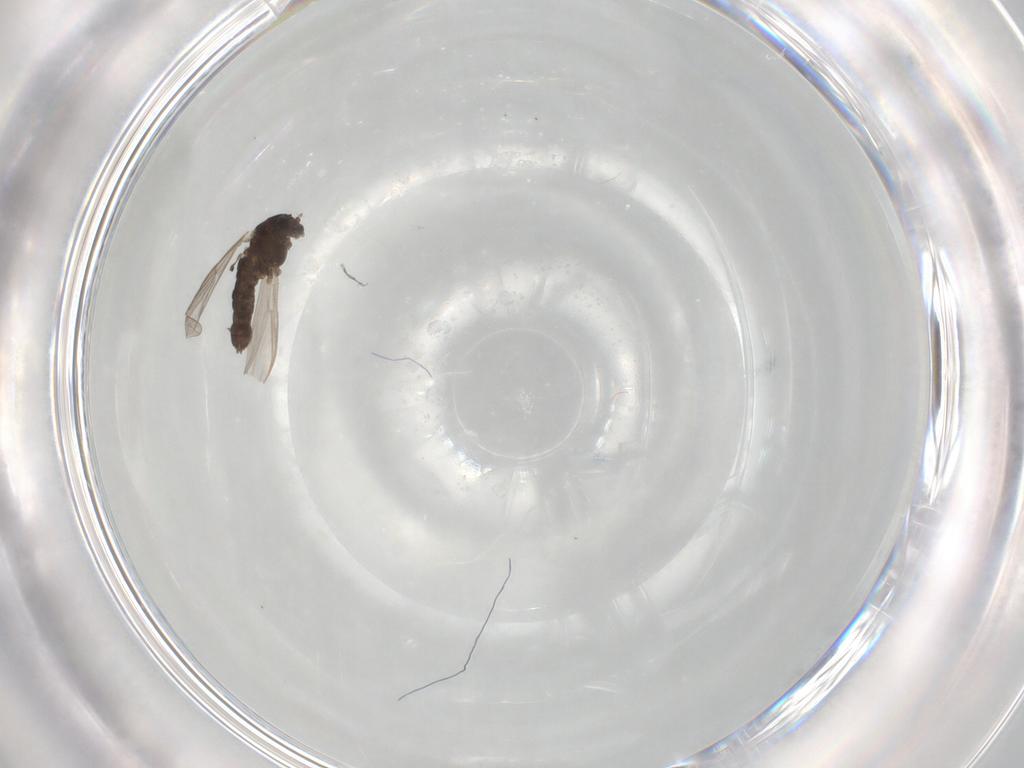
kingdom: Animalia
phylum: Arthropoda
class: Insecta
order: Diptera
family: Chironomidae
